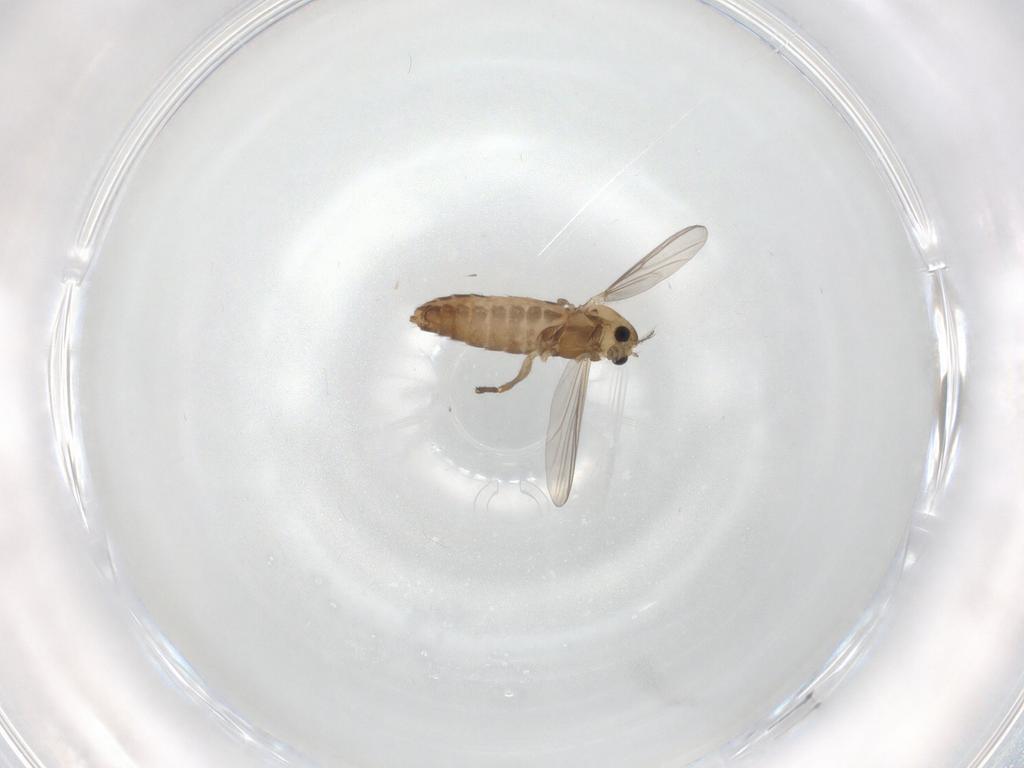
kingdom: Animalia
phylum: Arthropoda
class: Insecta
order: Diptera
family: Chironomidae
